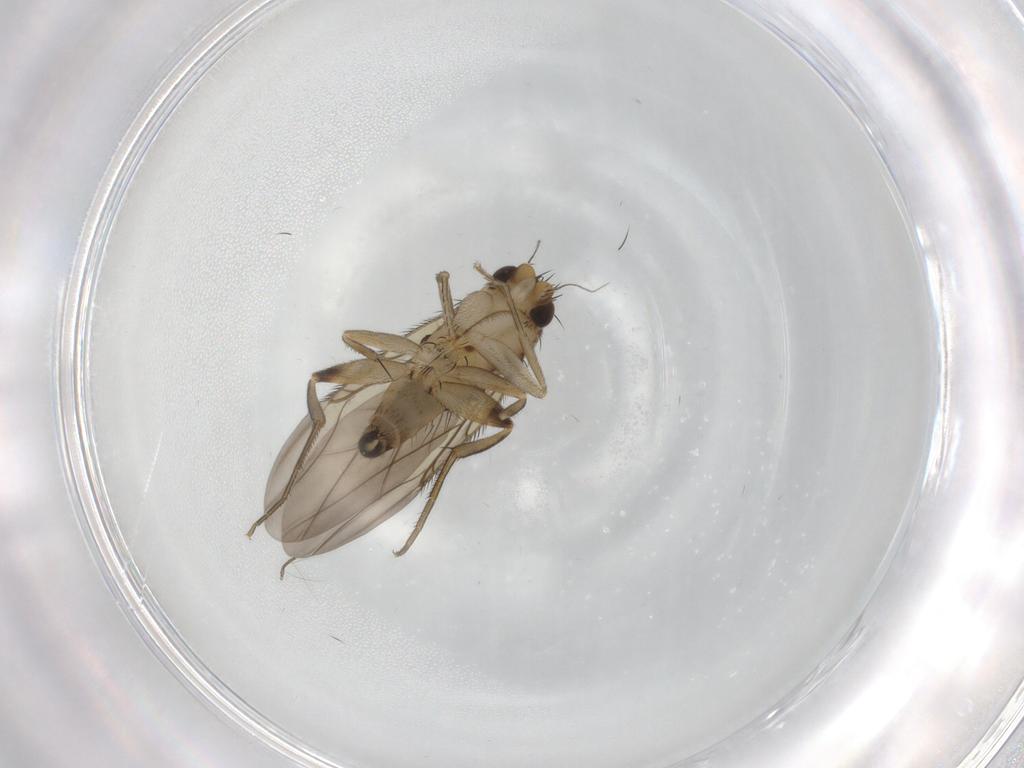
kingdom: Animalia
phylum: Arthropoda
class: Insecta
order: Diptera
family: Phoridae
